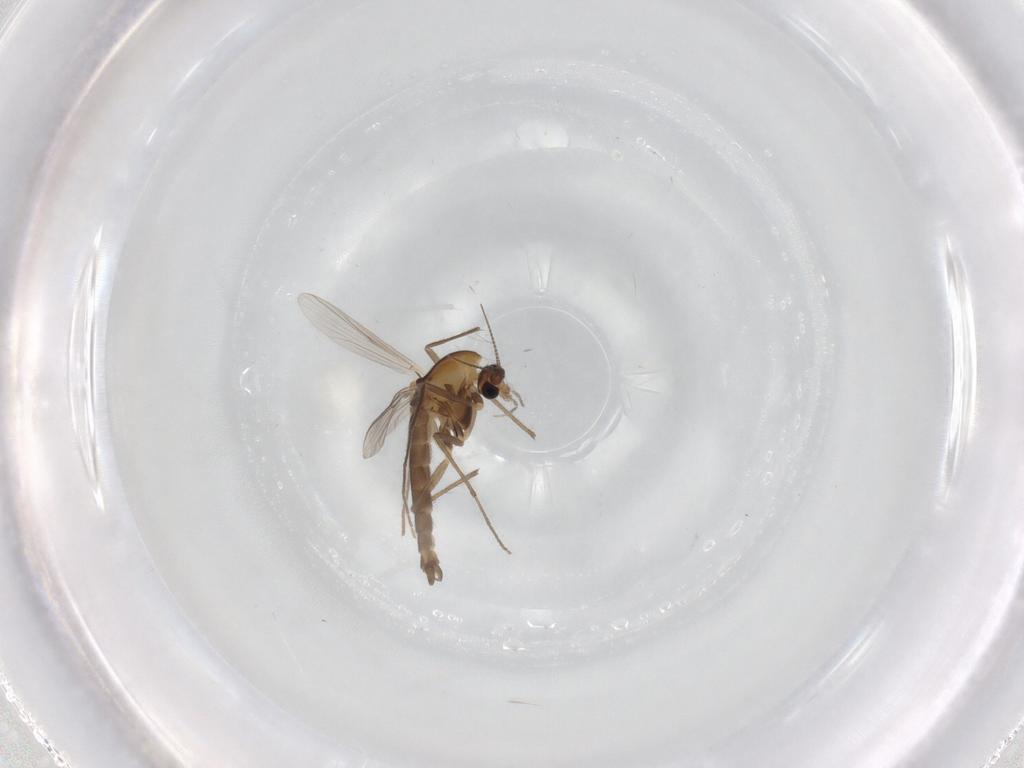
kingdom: Animalia
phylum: Arthropoda
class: Insecta
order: Diptera
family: Chironomidae
